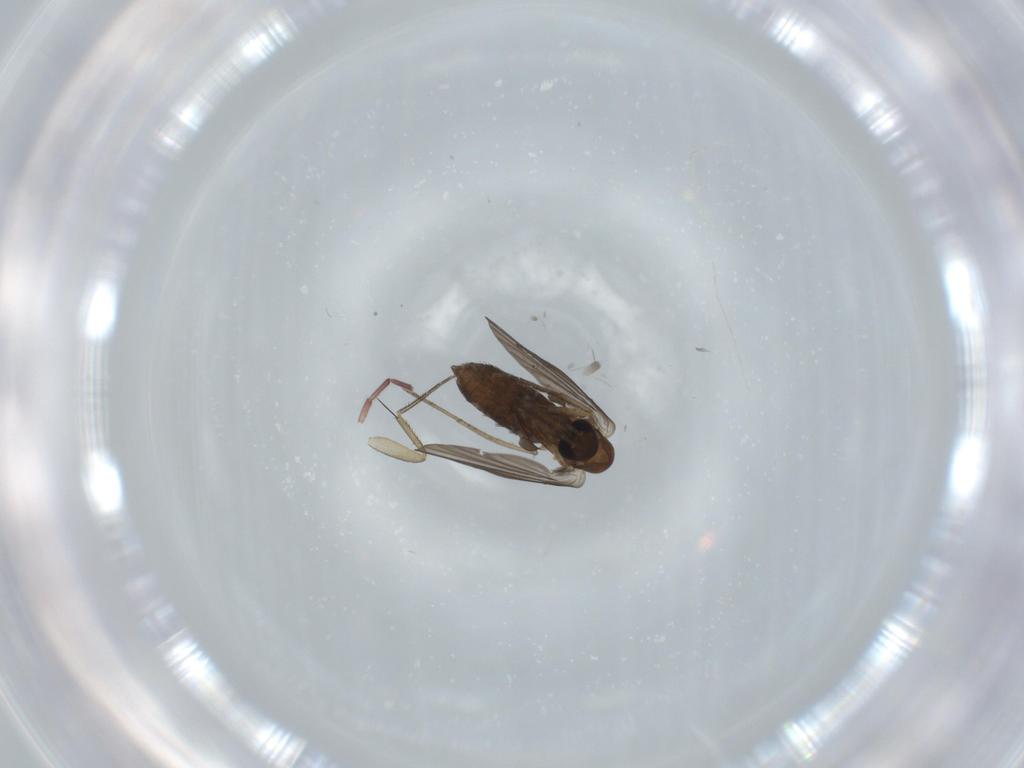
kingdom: Animalia
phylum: Arthropoda
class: Insecta
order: Diptera
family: Phoridae
